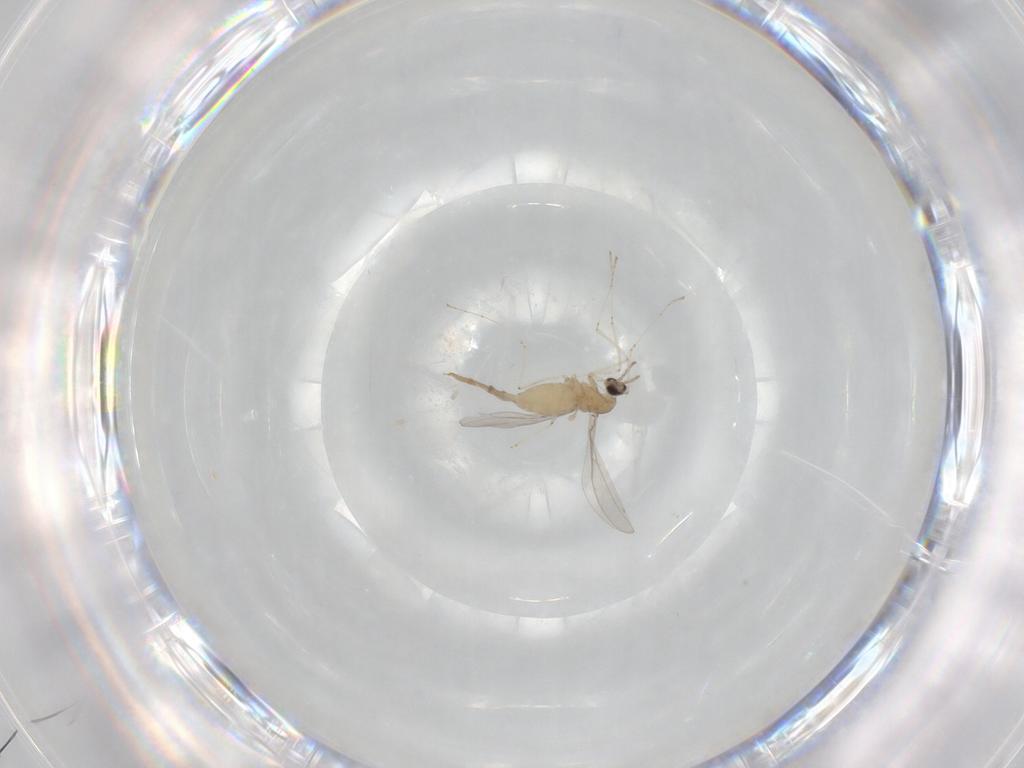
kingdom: Animalia
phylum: Arthropoda
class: Insecta
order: Diptera
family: Cecidomyiidae
